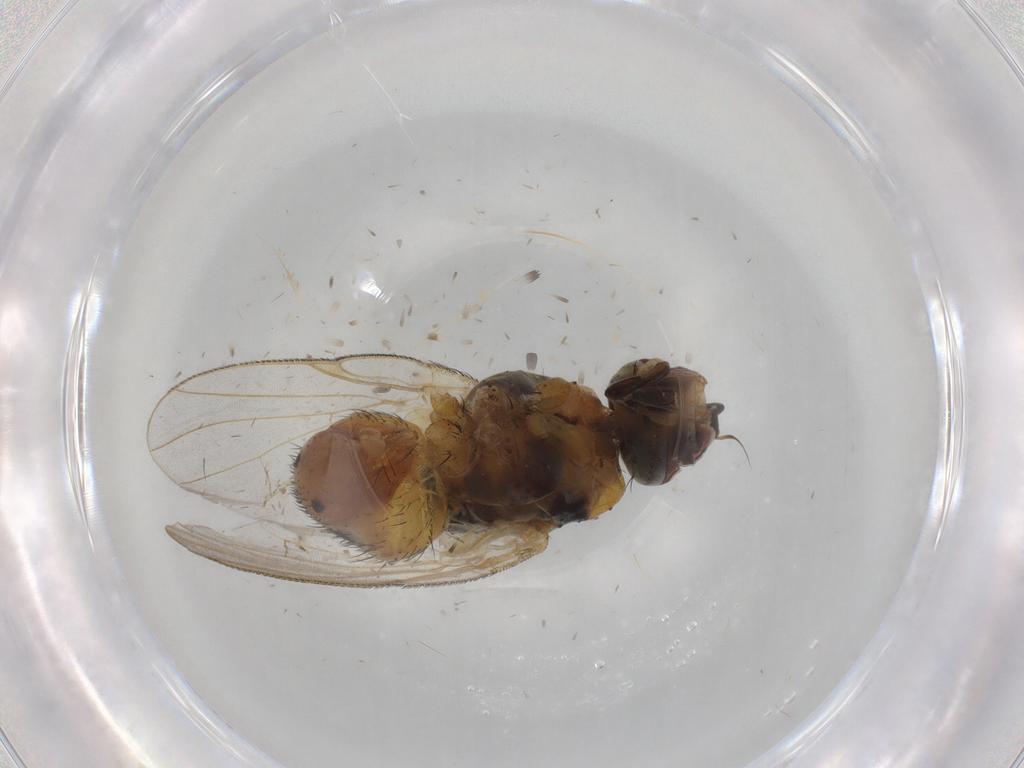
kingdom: Animalia
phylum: Arthropoda
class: Insecta
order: Diptera
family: Muscidae
